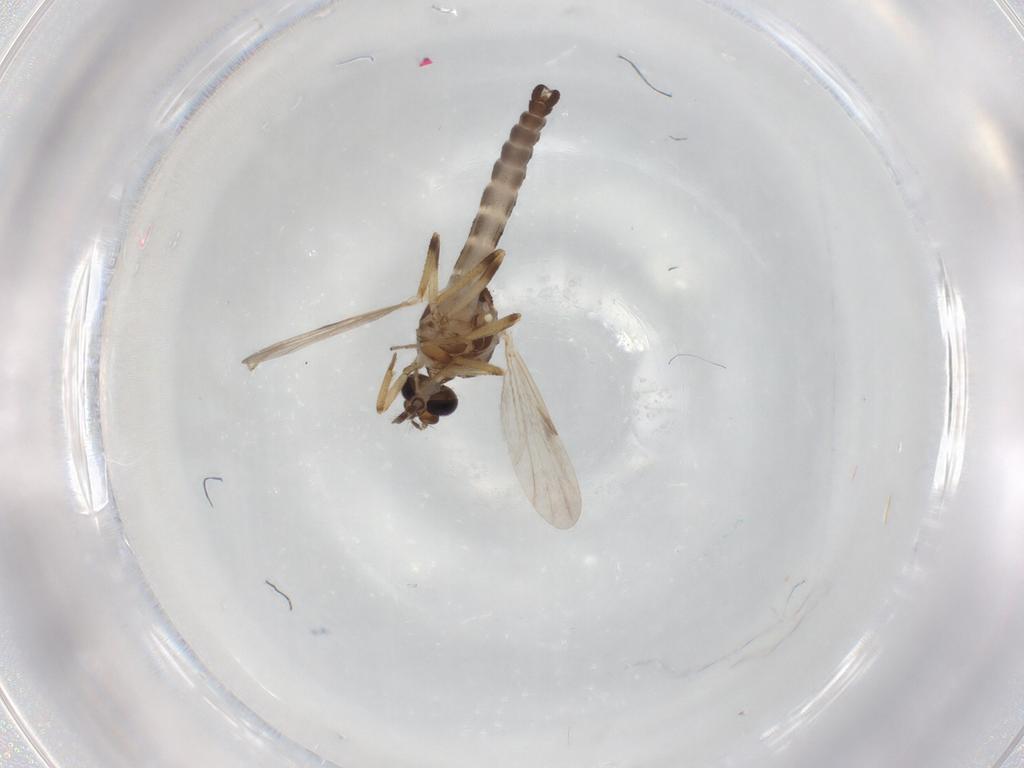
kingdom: Animalia
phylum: Arthropoda
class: Insecta
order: Diptera
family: Ceratopogonidae
